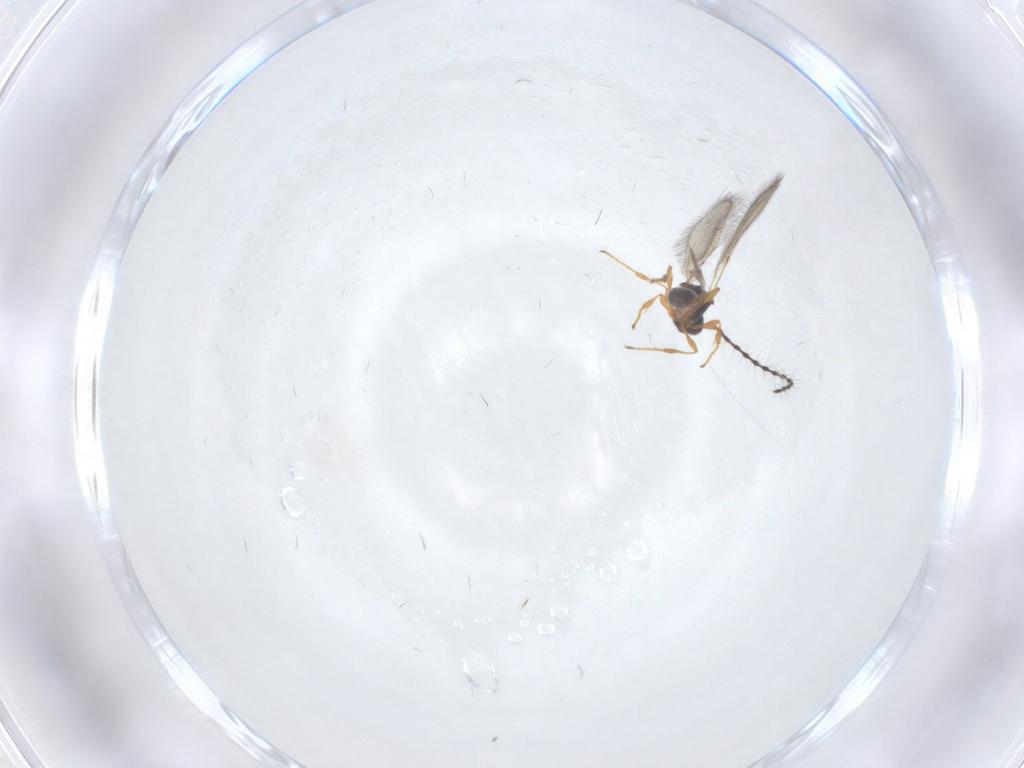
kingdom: Animalia
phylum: Arthropoda
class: Insecta
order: Hymenoptera
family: Diapriidae
